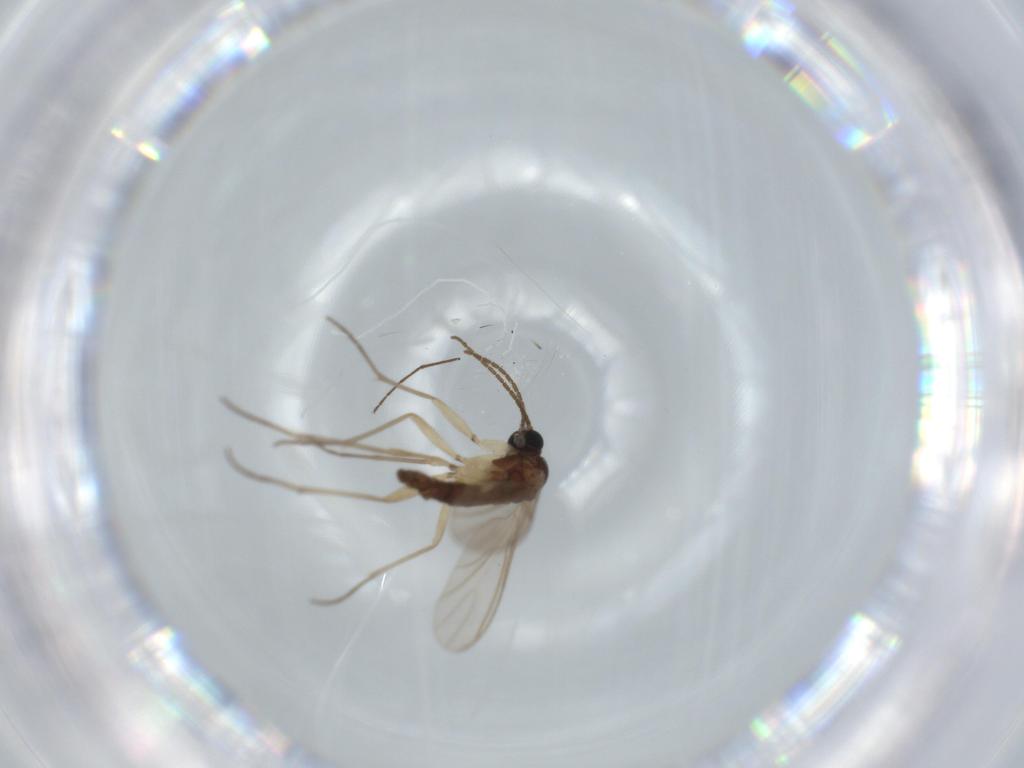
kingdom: Animalia
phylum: Arthropoda
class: Insecta
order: Diptera
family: Sciaridae
